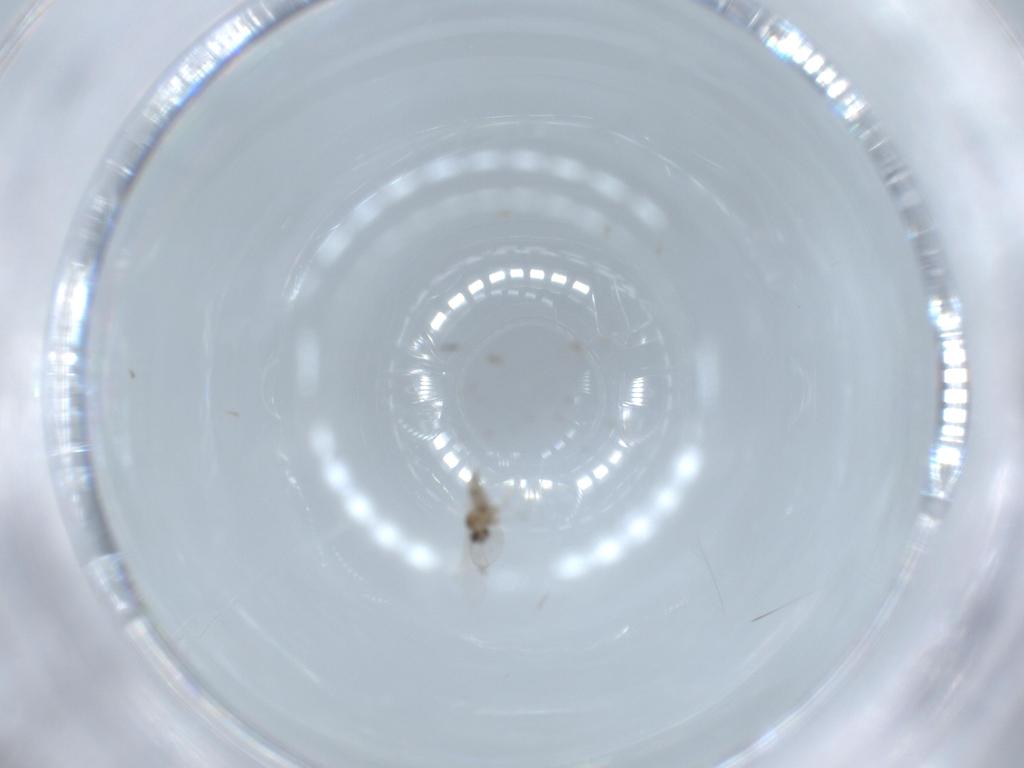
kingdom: Animalia
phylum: Arthropoda
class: Insecta
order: Diptera
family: Cecidomyiidae
